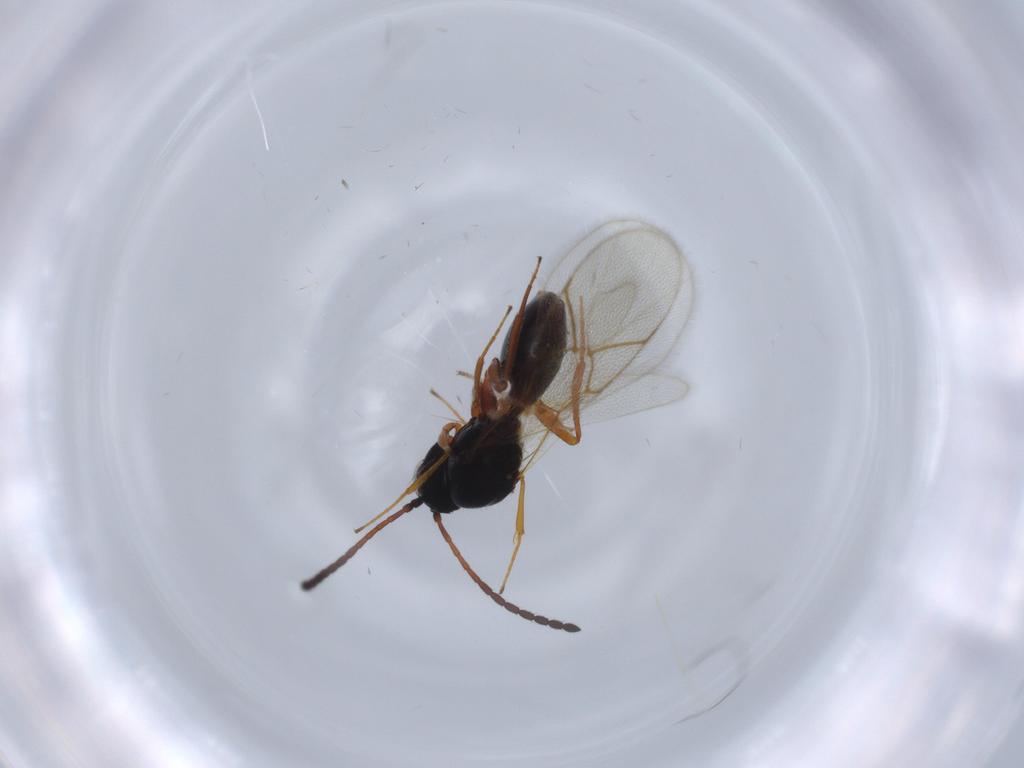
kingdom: Animalia
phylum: Arthropoda
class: Insecta
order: Hymenoptera
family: Figitidae
